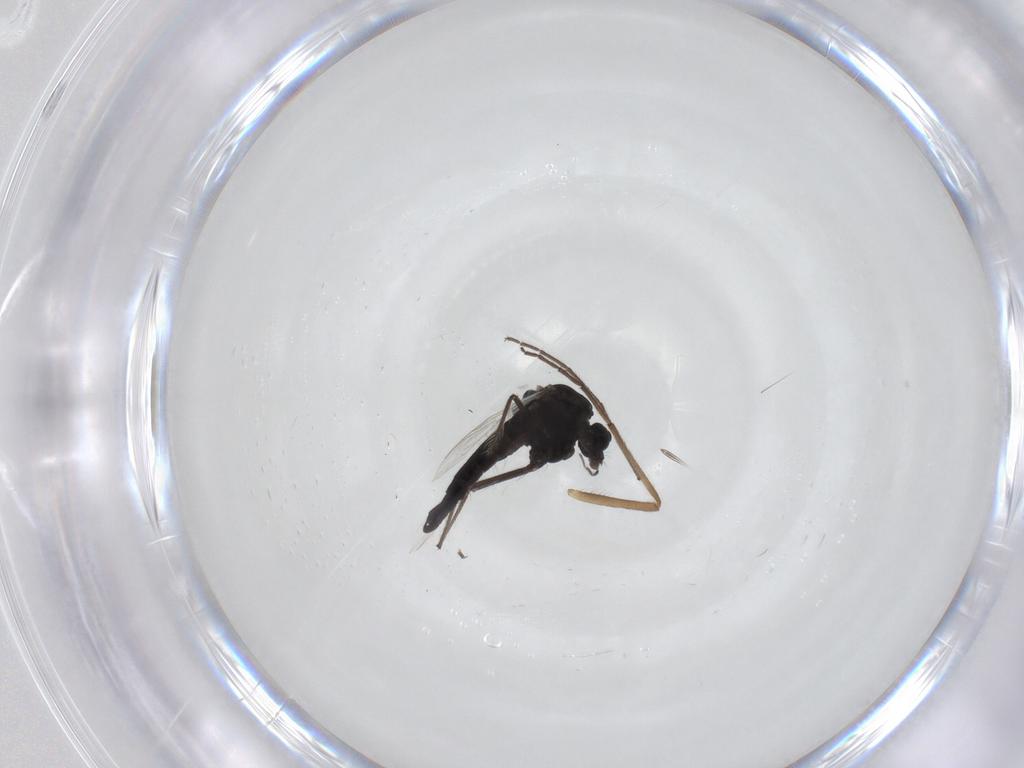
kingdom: Animalia
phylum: Arthropoda
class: Insecta
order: Diptera
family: Chironomidae
